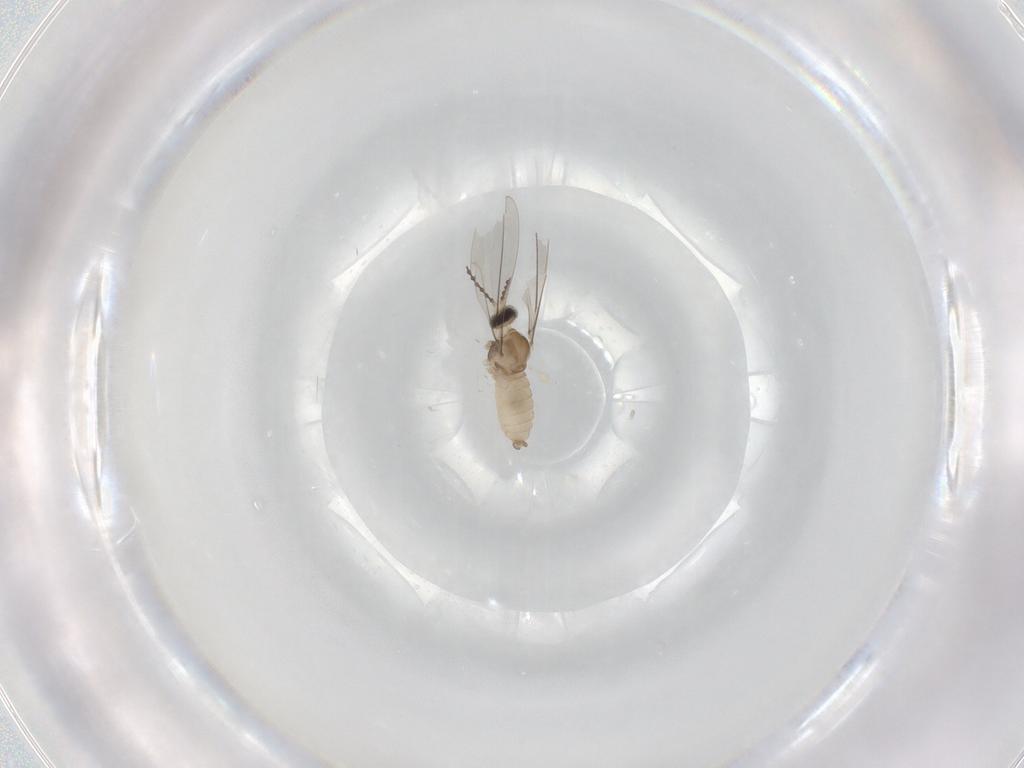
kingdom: Animalia
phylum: Arthropoda
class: Insecta
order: Diptera
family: Cecidomyiidae
